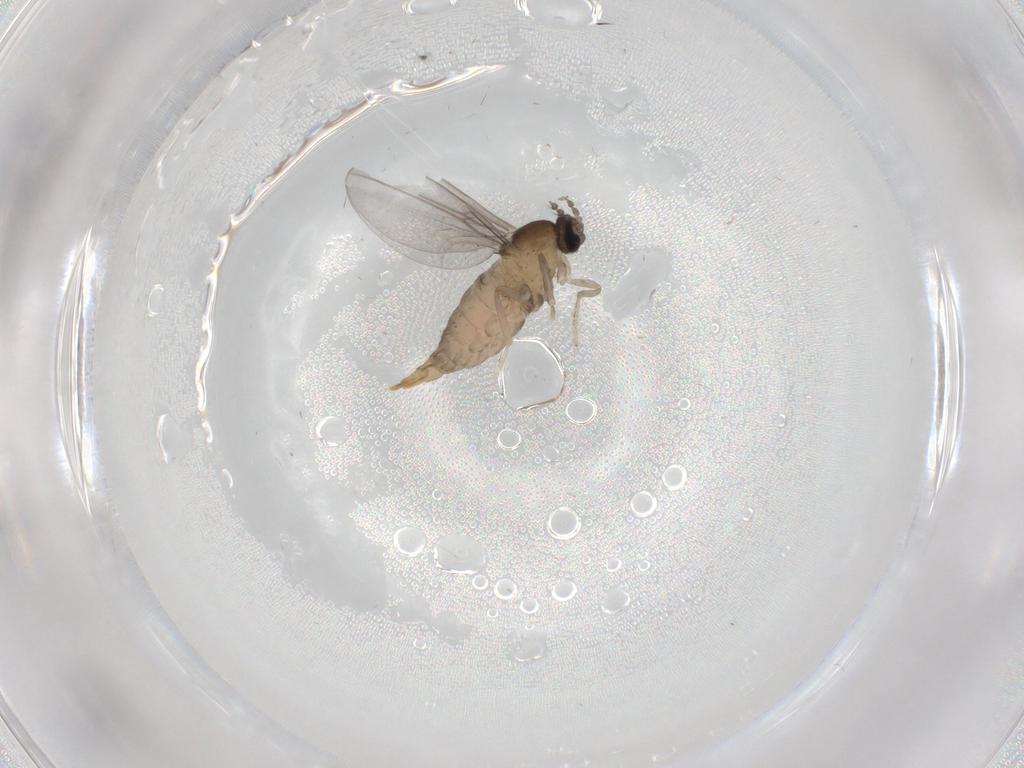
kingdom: Animalia
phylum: Arthropoda
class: Insecta
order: Diptera
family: Cecidomyiidae
